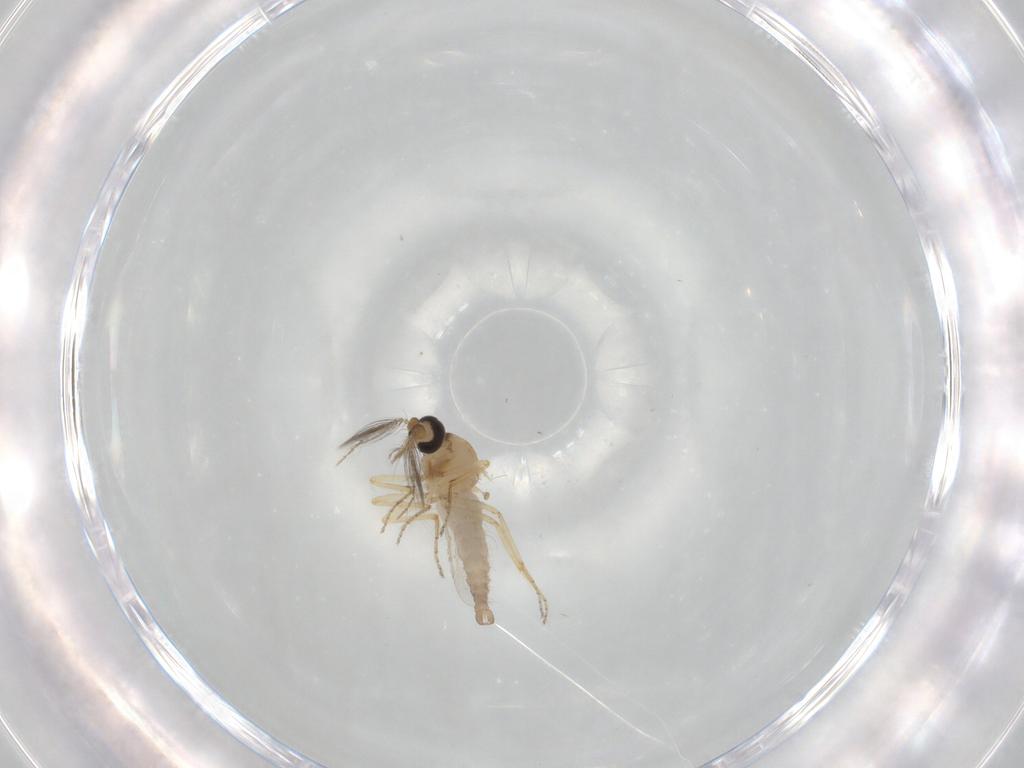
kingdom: Animalia
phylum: Arthropoda
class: Insecta
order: Diptera
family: Ceratopogonidae
